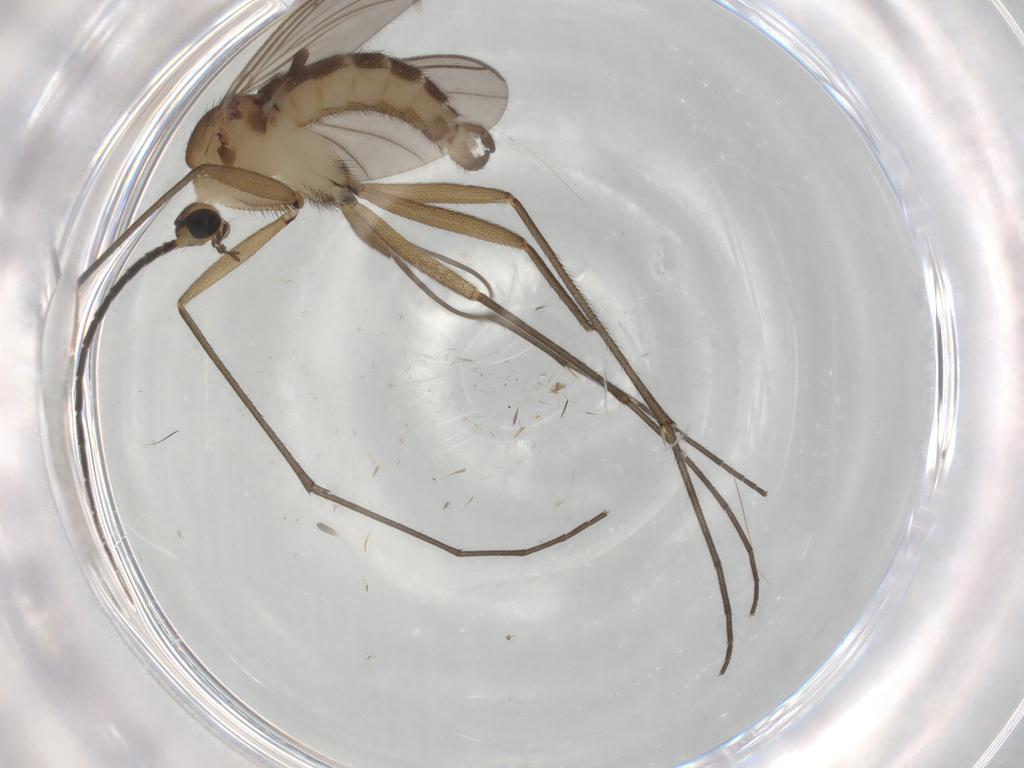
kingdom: Animalia
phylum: Arthropoda
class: Insecta
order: Diptera
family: Sciaridae
